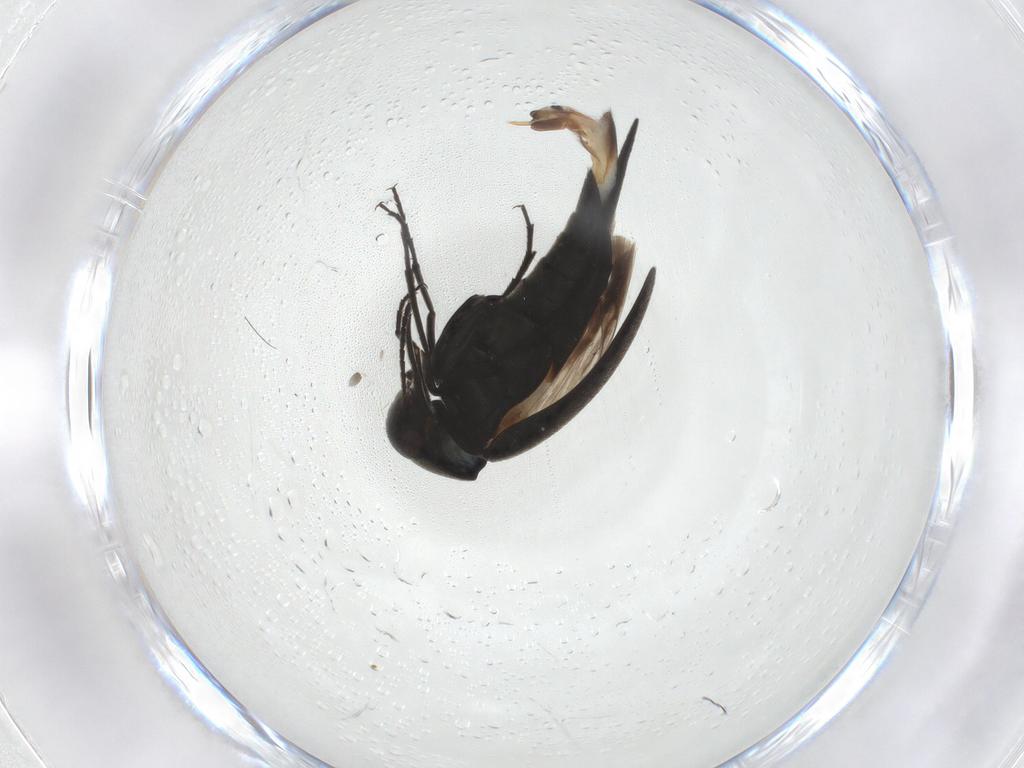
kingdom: Animalia
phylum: Arthropoda
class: Insecta
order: Coleoptera
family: Mordellidae
